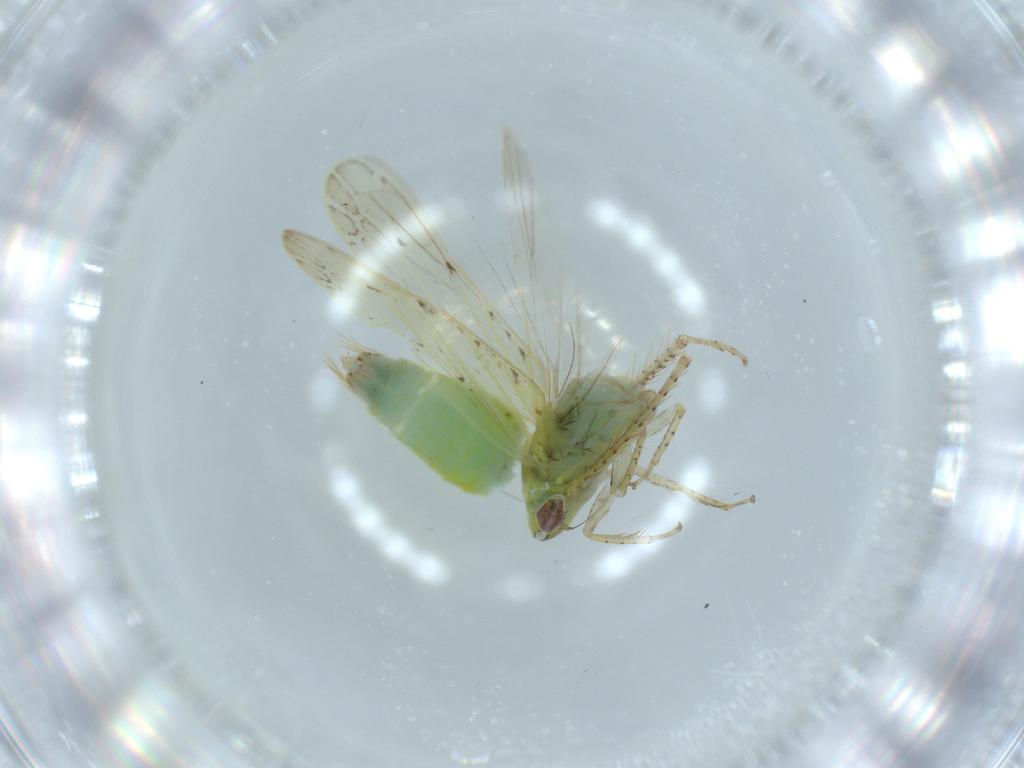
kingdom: Animalia
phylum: Arthropoda
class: Insecta
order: Hemiptera
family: Cicadellidae
